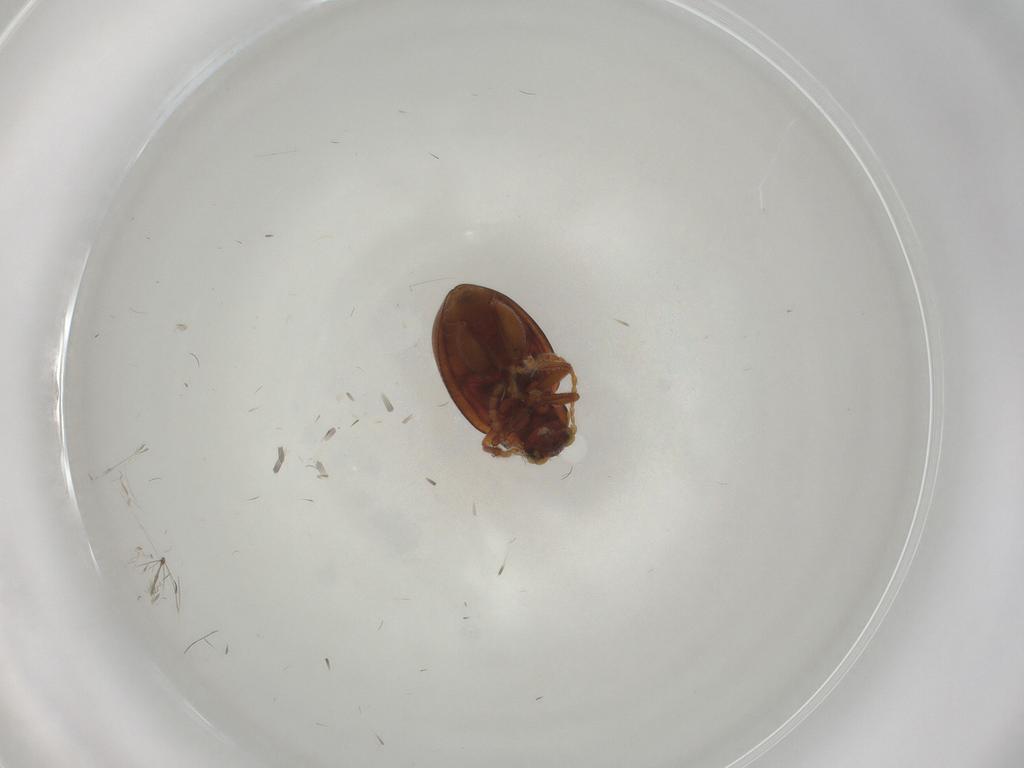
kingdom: Animalia
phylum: Arthropoda
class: Insecta
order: Coleoptera
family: Chrysomelidae
